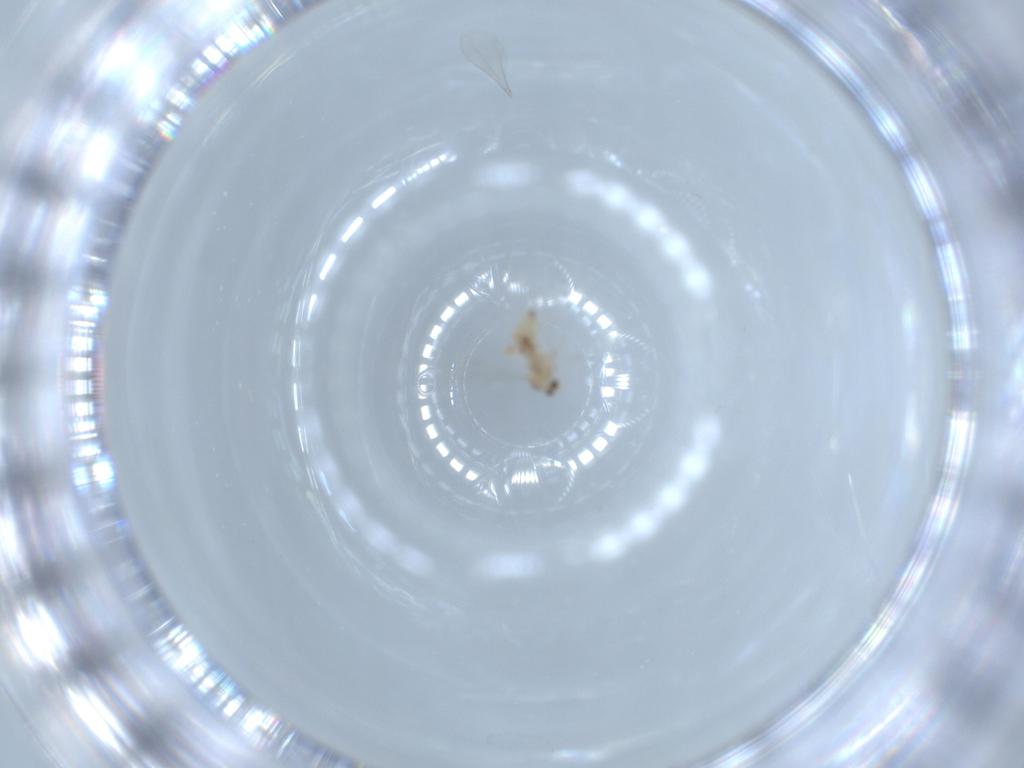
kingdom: Animalia
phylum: Arthropoda
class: Insecta
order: Diptera
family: Cecidomyiidae
